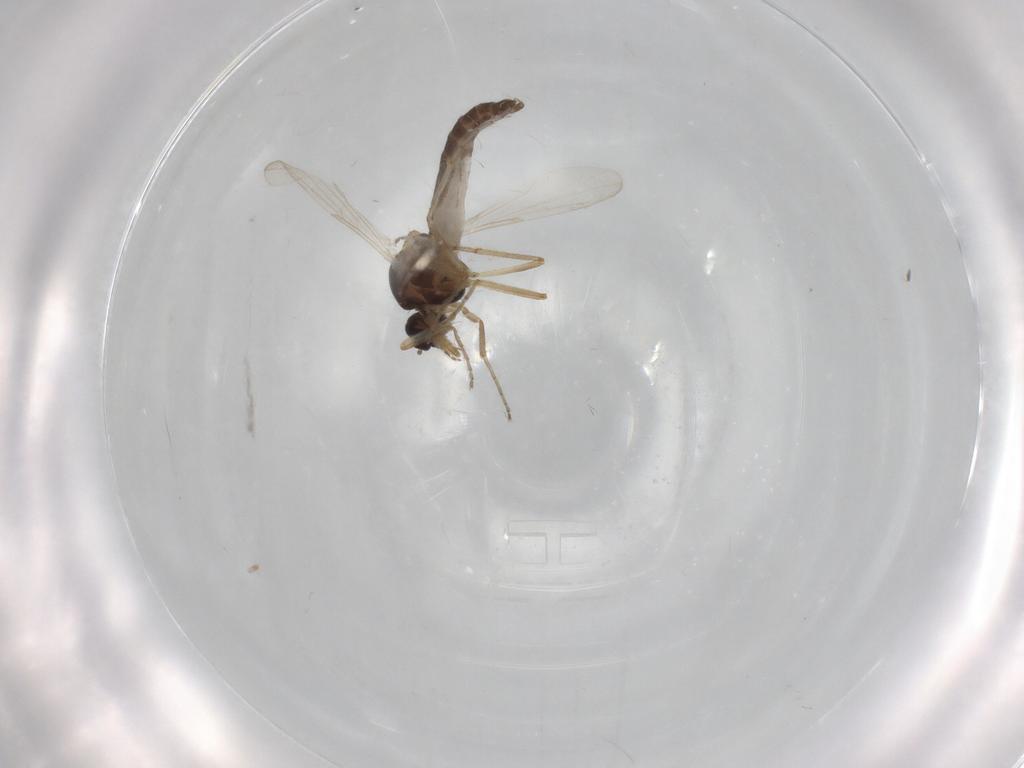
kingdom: Animalia
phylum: Arthropoda
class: Insecta
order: Diptera
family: Ceratopogonidae
